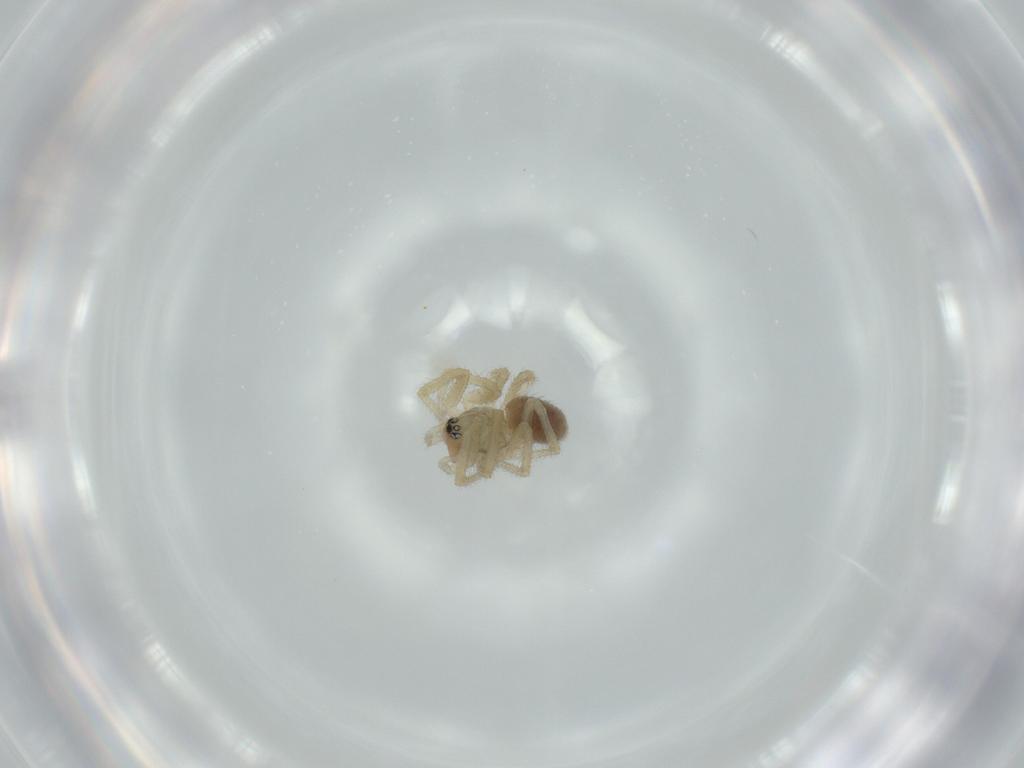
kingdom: Animalia
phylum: Arthropoda
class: Arachnida
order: Araneae
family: Linyphiidae
